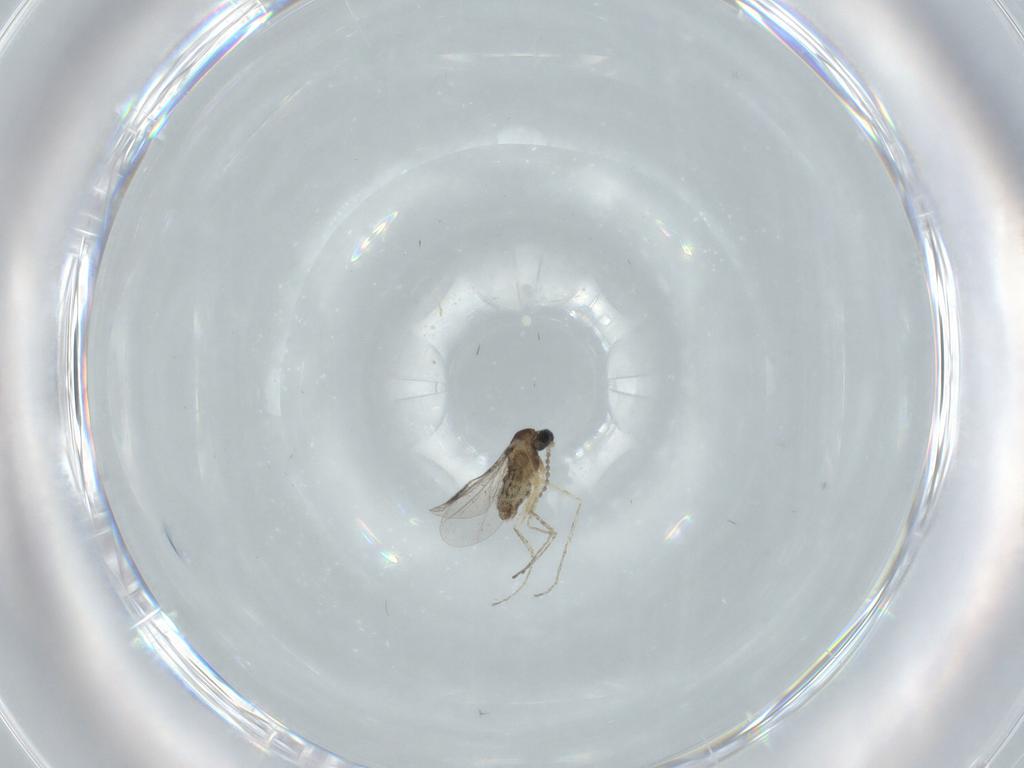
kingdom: Animalia
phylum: Arthropoda
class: Insecta
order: Diptera
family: Cecidomyiidae
